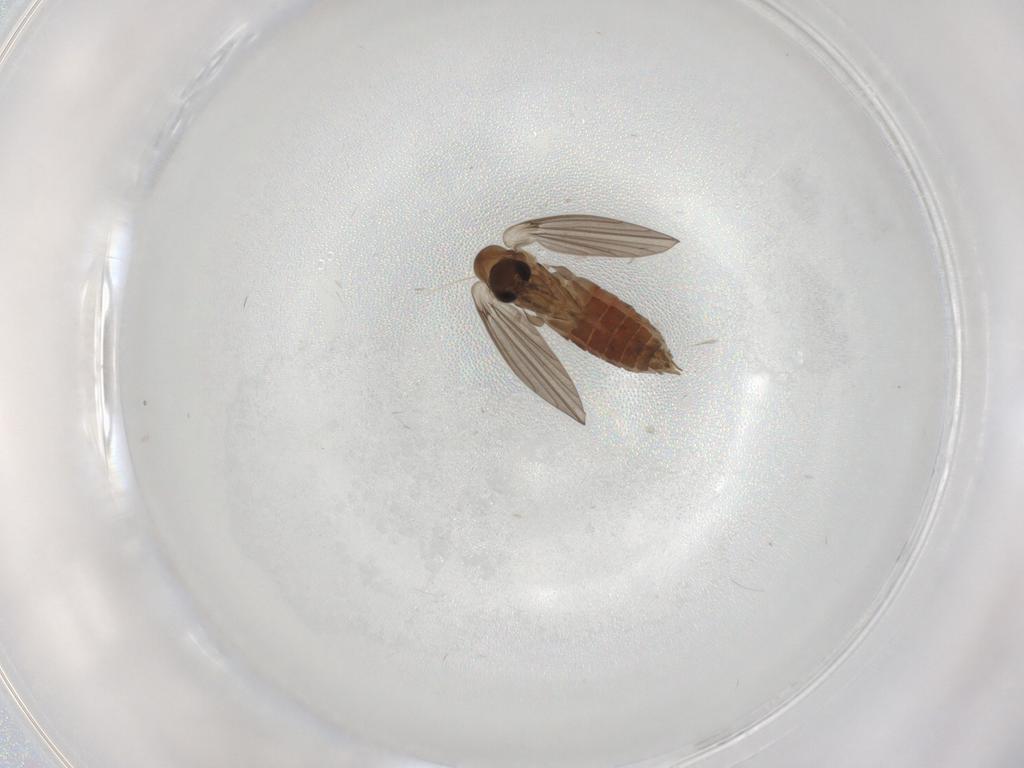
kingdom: Animalia
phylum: Arthropoda
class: Insecta
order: Diptera
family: Psychodidae
